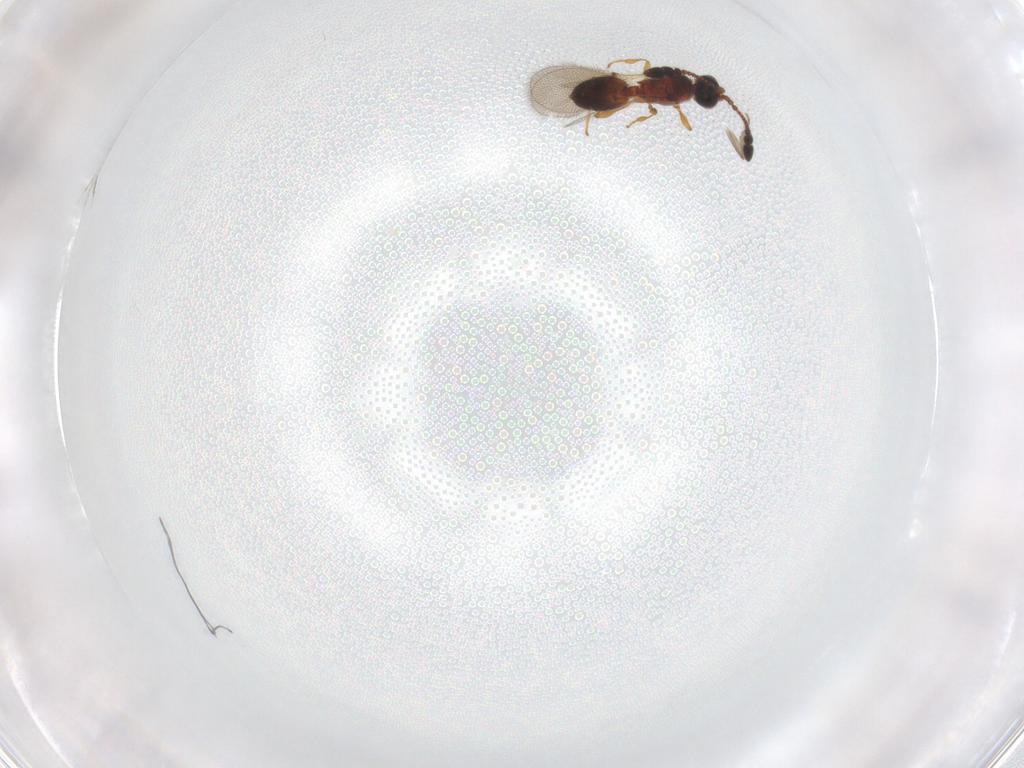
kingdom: Animalia
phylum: Arthropoda
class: Insecta
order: Hymenoptera
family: Diapriidae
